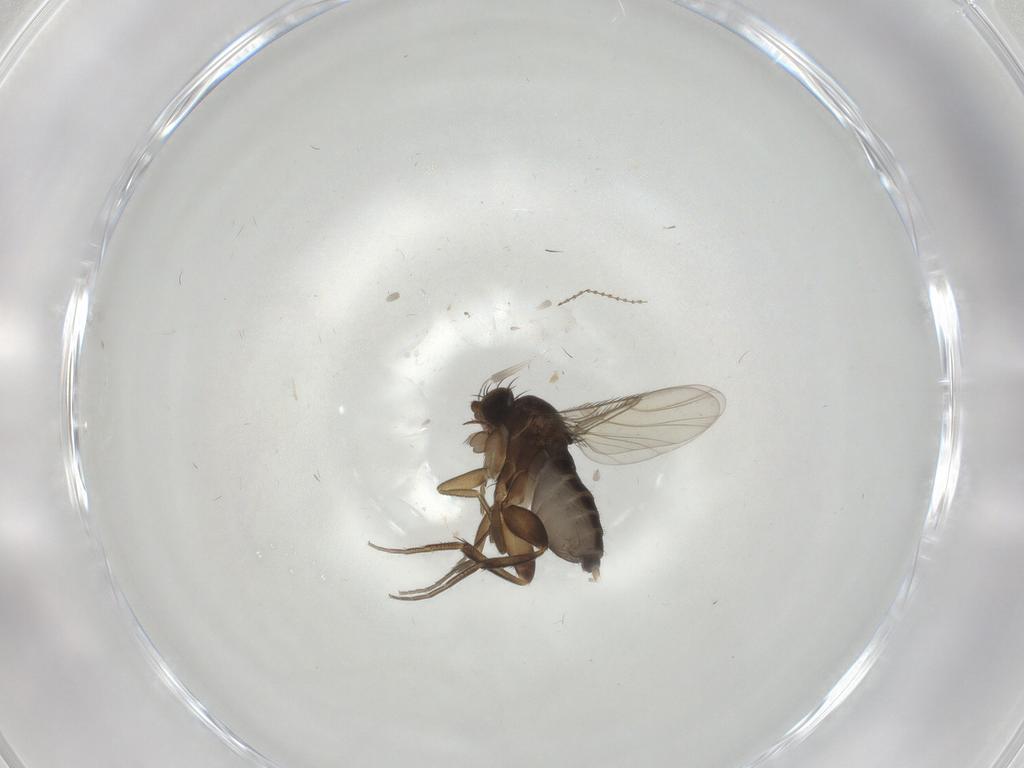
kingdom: Animalia
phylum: Arthropoda
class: Insecta
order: Diptera
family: Phoridae
